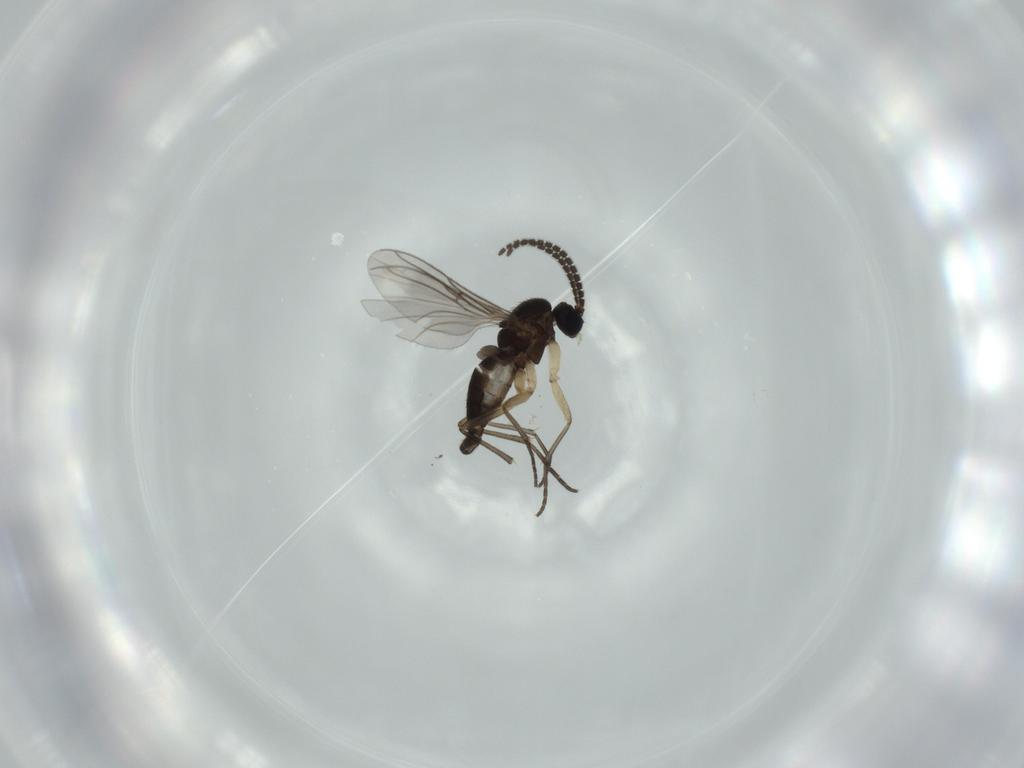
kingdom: Animalia
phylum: Arthropoda
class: Insecta
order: Diptera
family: Sciaridae
